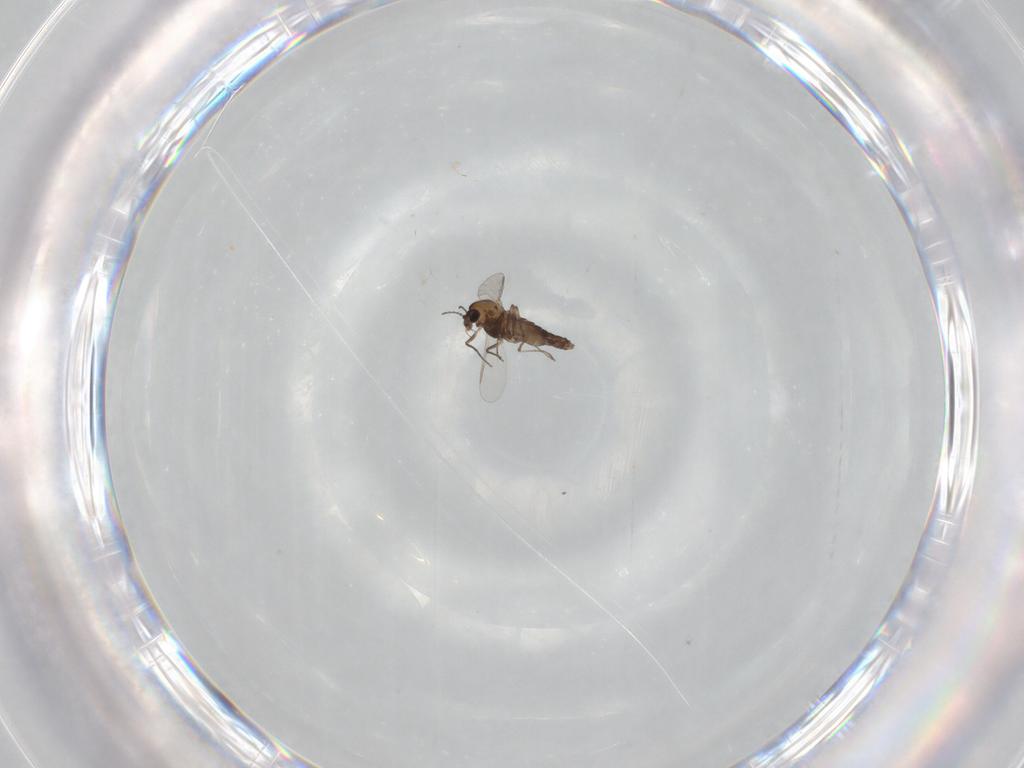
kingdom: Animalia
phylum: Arthropoda
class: Insecta
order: Diptera
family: Chironomidae
